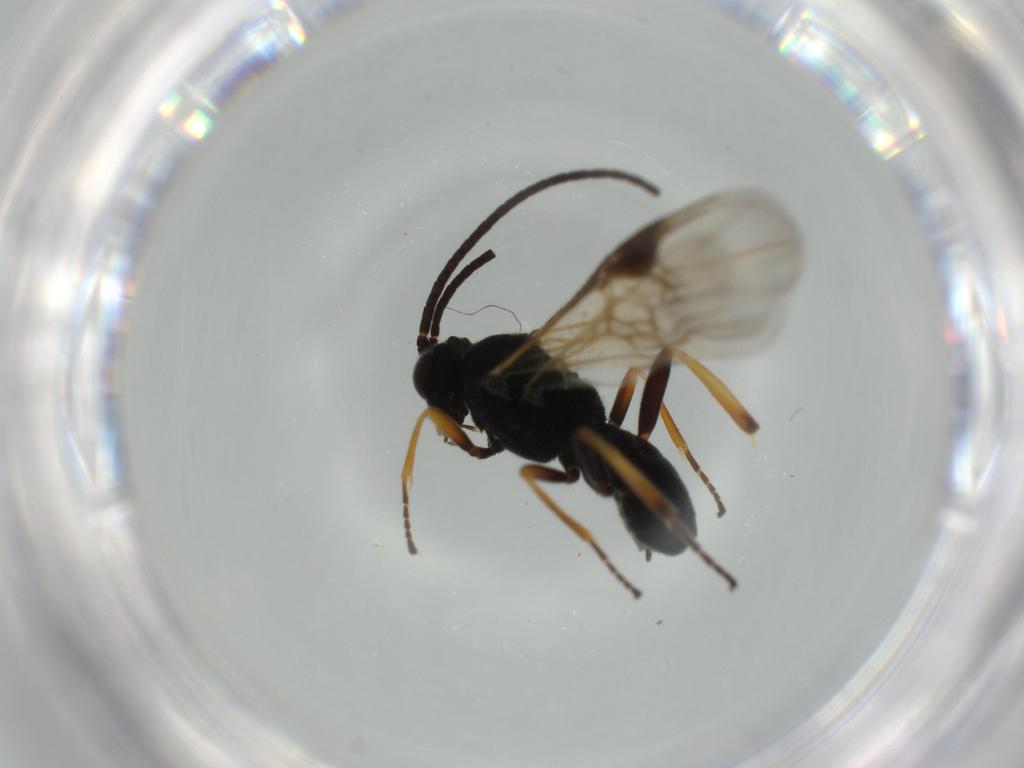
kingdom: Animalia
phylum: Arthropoda
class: Insecta
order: Hymenoptera
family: Braconidae
